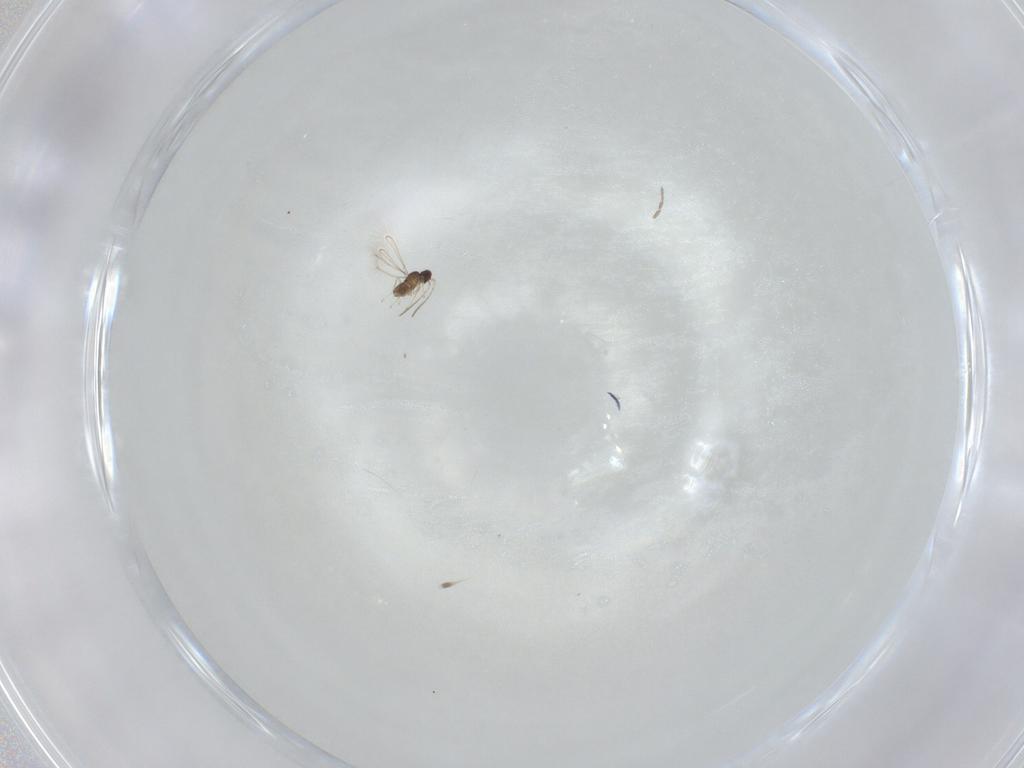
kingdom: Animalia
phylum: Arthropoda
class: Insecta
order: Hymenoptera
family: Mymaridae
